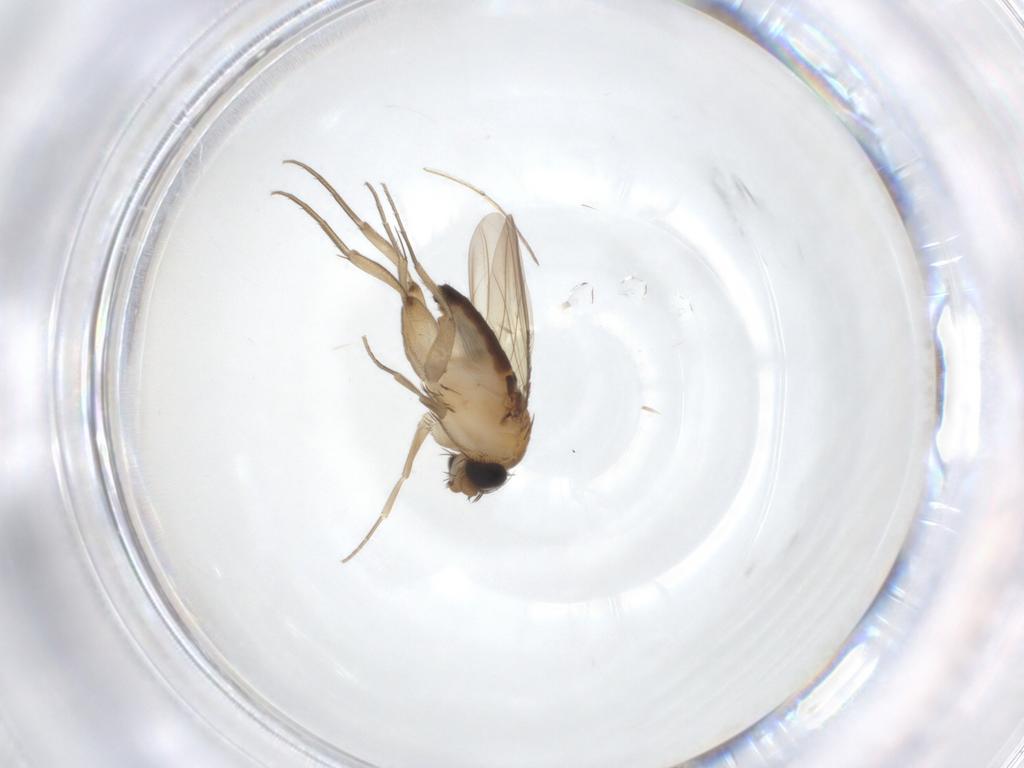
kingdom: Animalia
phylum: Arthropoda
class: Insecta
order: Diptera
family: Phoridae
